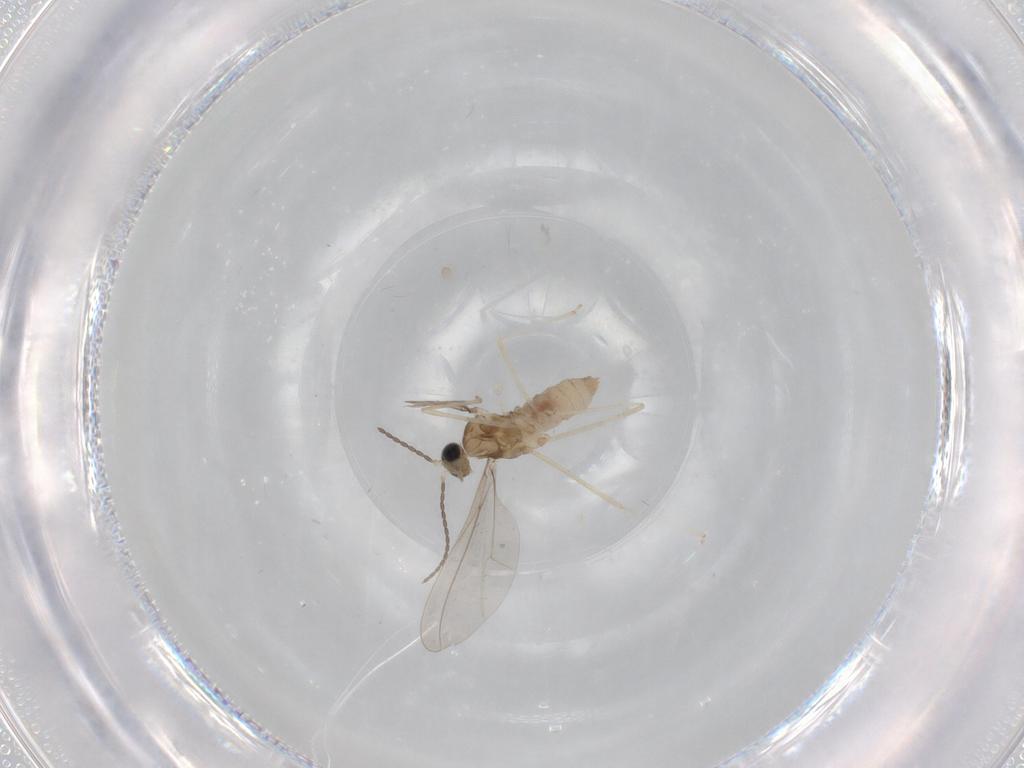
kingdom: Animalia
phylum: Arthropoda
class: Insecta
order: Diptera
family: Cecidomyiidae
